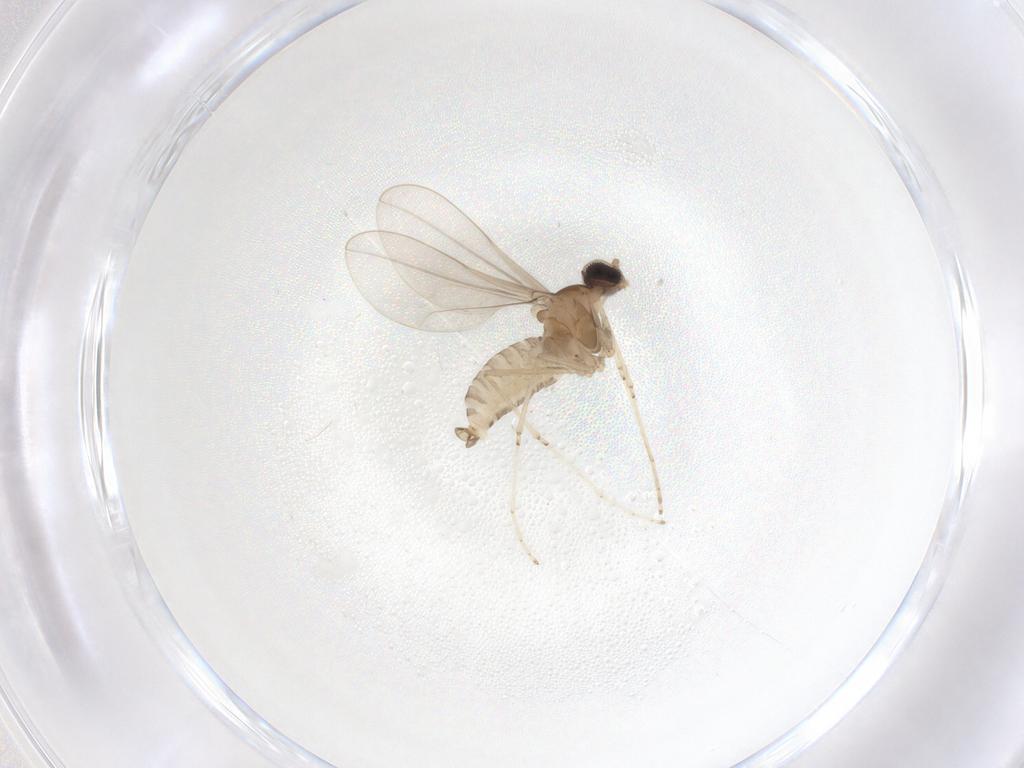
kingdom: Animalia
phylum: Arthropoda
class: Insecta
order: Diptera
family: Cecidomyiidae
